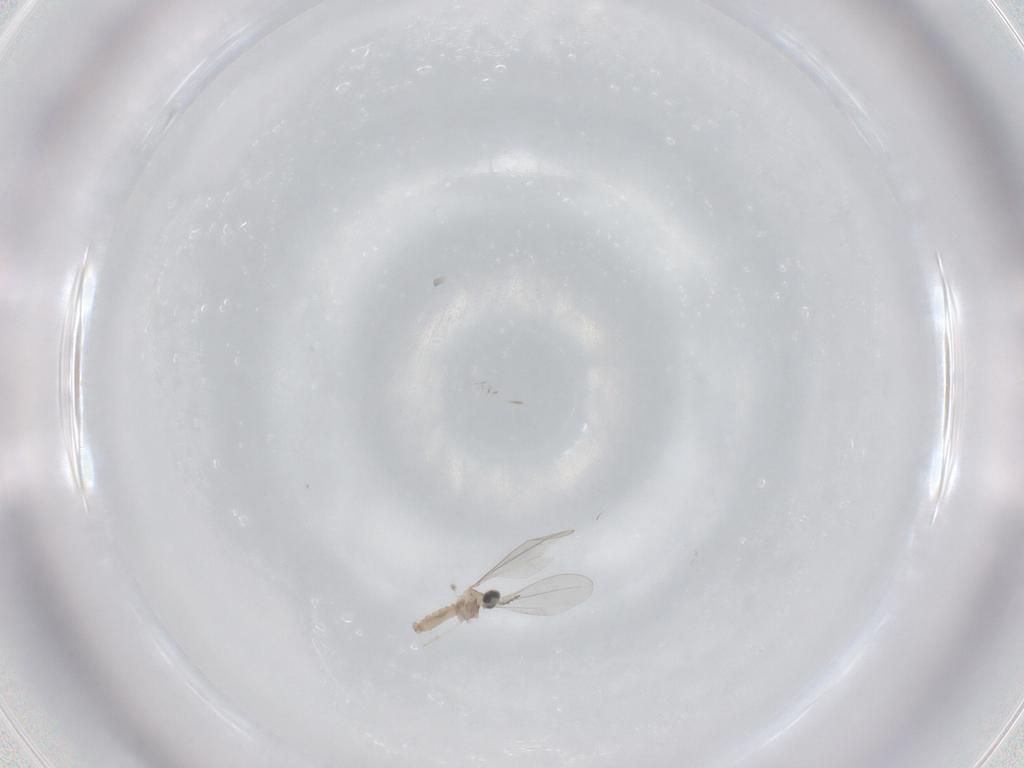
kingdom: Animalia
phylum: Arthropoda
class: Insecta
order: Diptera
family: Cecidomyiidae
